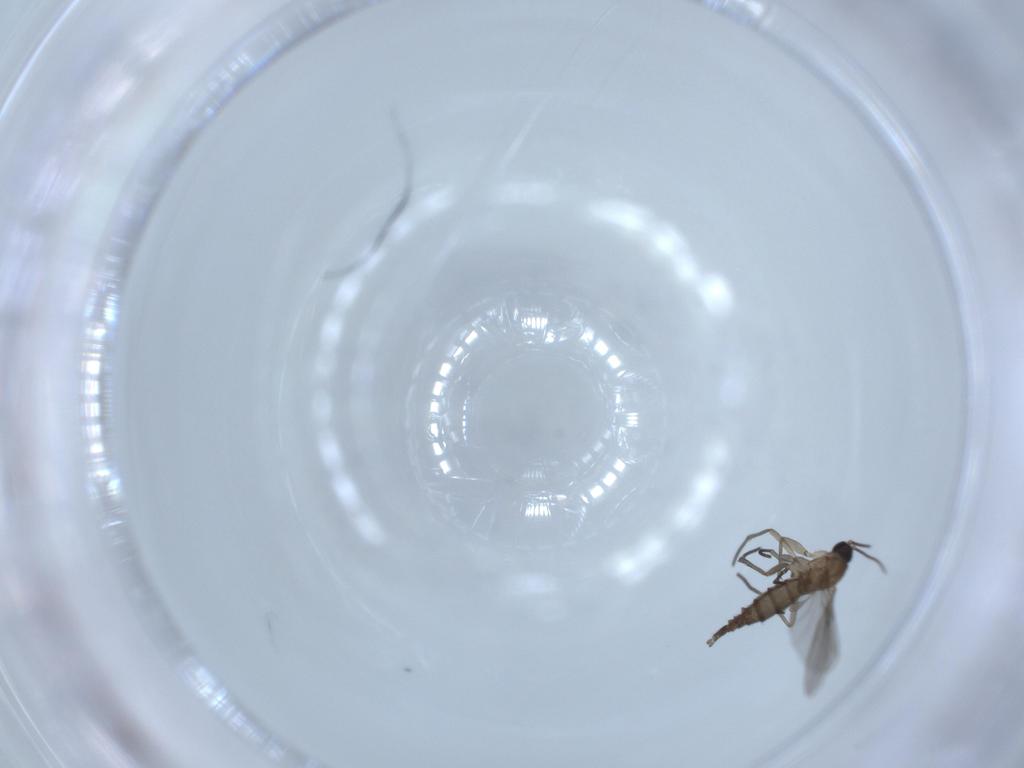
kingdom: Animalia
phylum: Arthropoda
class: Insecta
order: Diptera
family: Sciaridae
